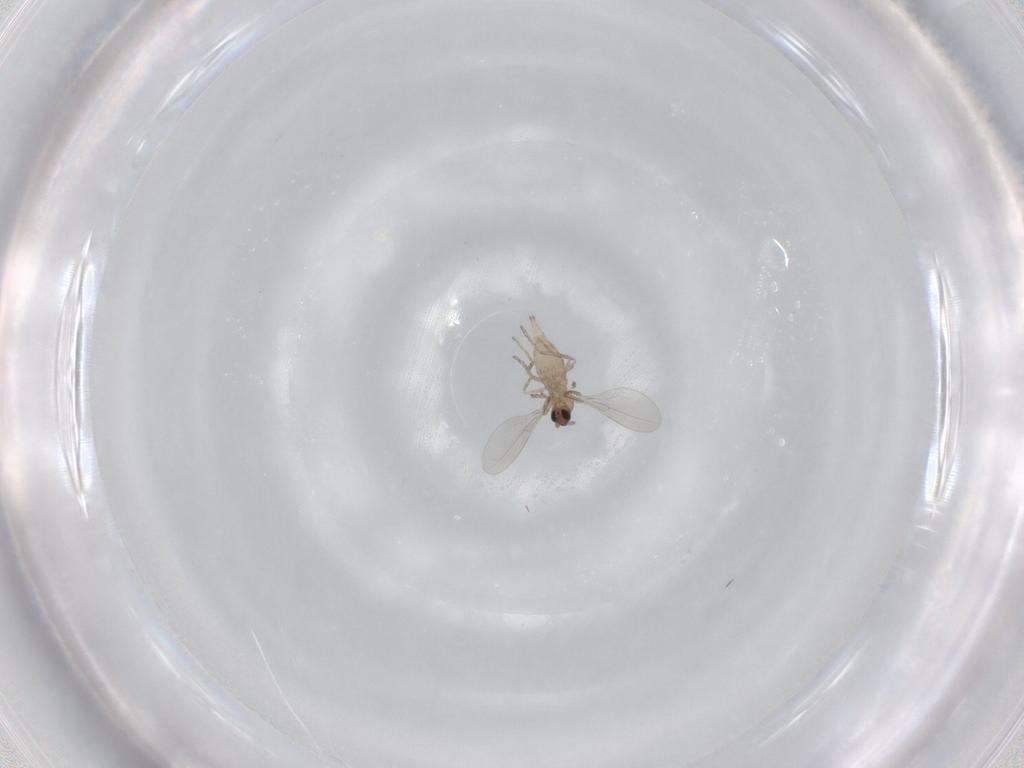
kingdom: Animalia
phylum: Arthropoda
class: Insecta
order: Diptera
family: Cecidomyiidae
